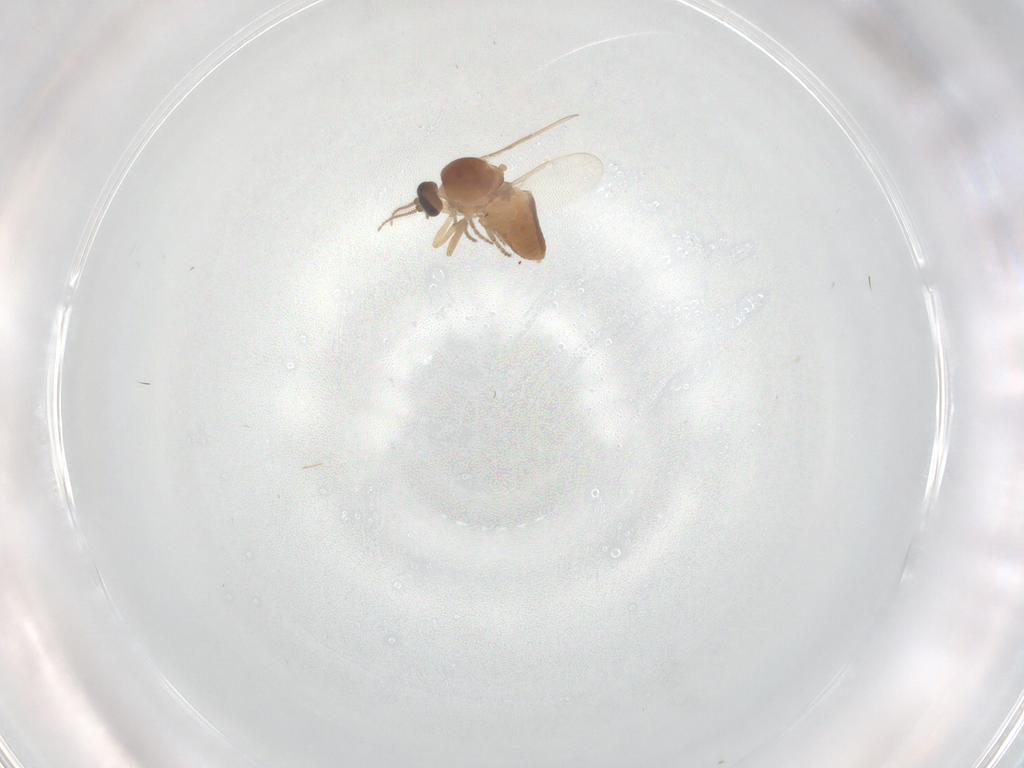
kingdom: Animalia
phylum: Arthropoda
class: Insecta
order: Diptera
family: Ceratopogonidae
